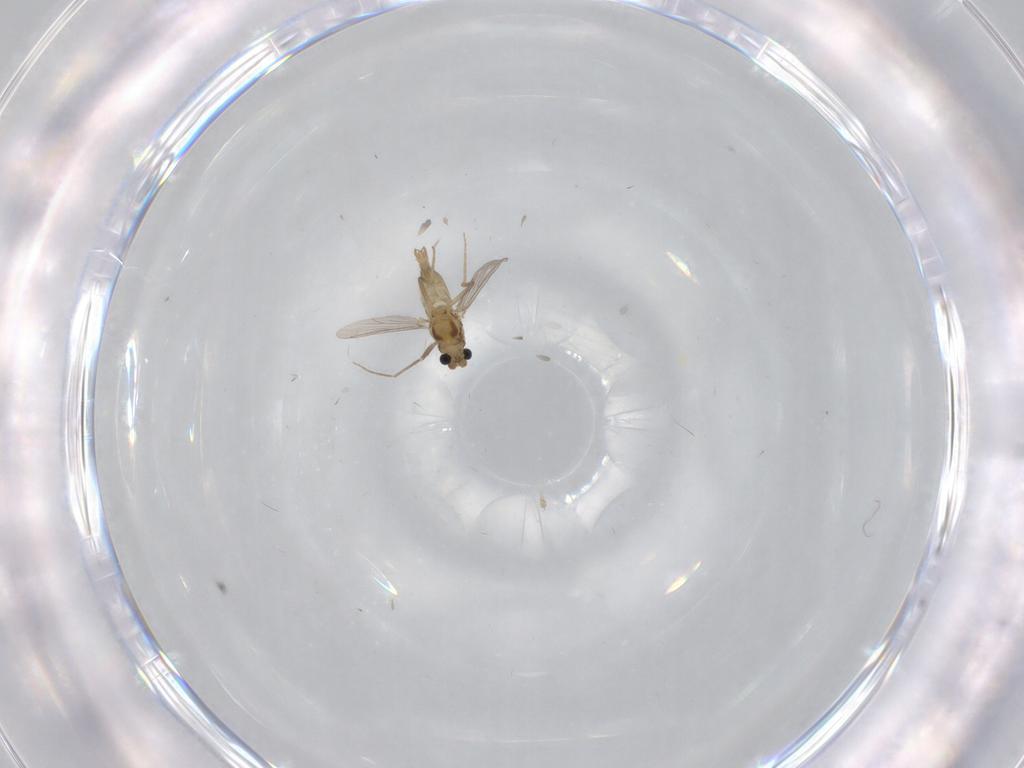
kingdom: Animalia
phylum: Arthropoda
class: Insecta
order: Diptera
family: Chironomidae
